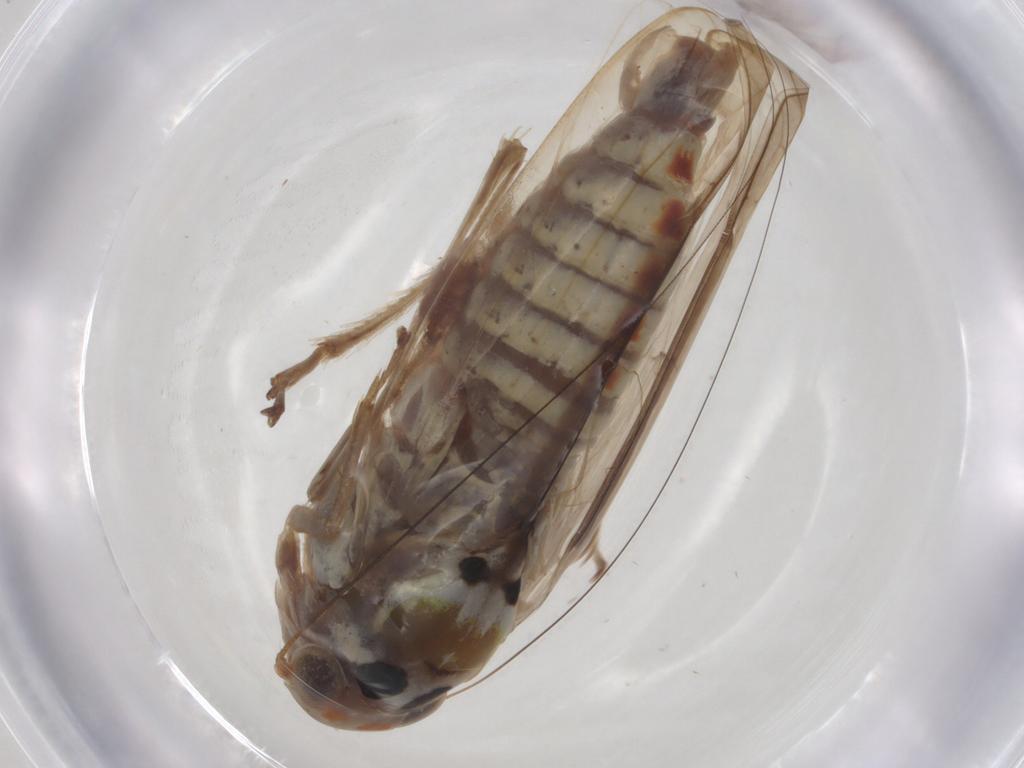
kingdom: Animalia
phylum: Arthropoda
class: Insecta
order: Hemiptera
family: Cicadellidae
